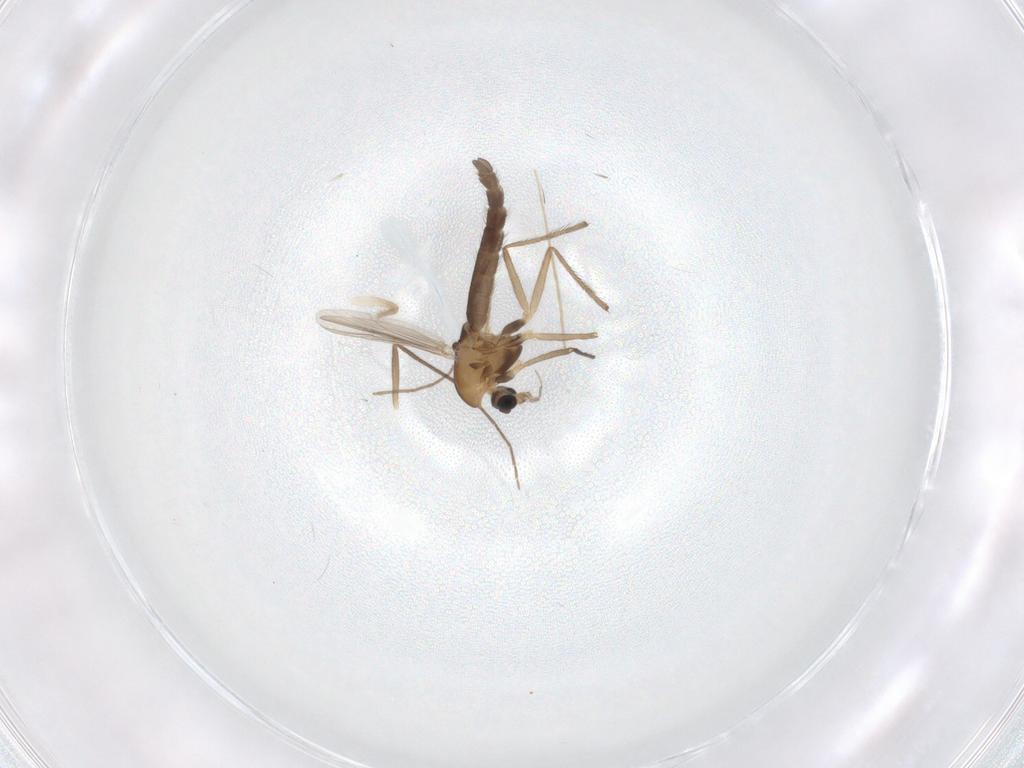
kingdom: Animalia
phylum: Arthropoda
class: Insecta
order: Diptera
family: Chironomidae
